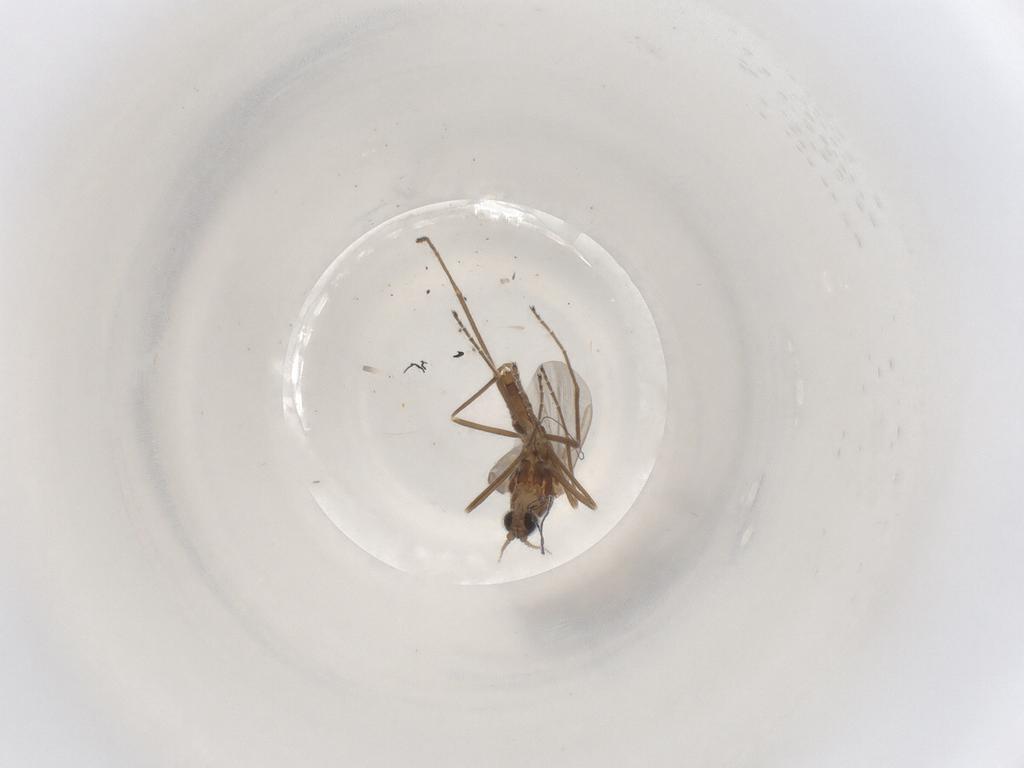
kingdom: Animalia
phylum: Arthropoda
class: Insecta
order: Diptera
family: Cecidomyiidae
